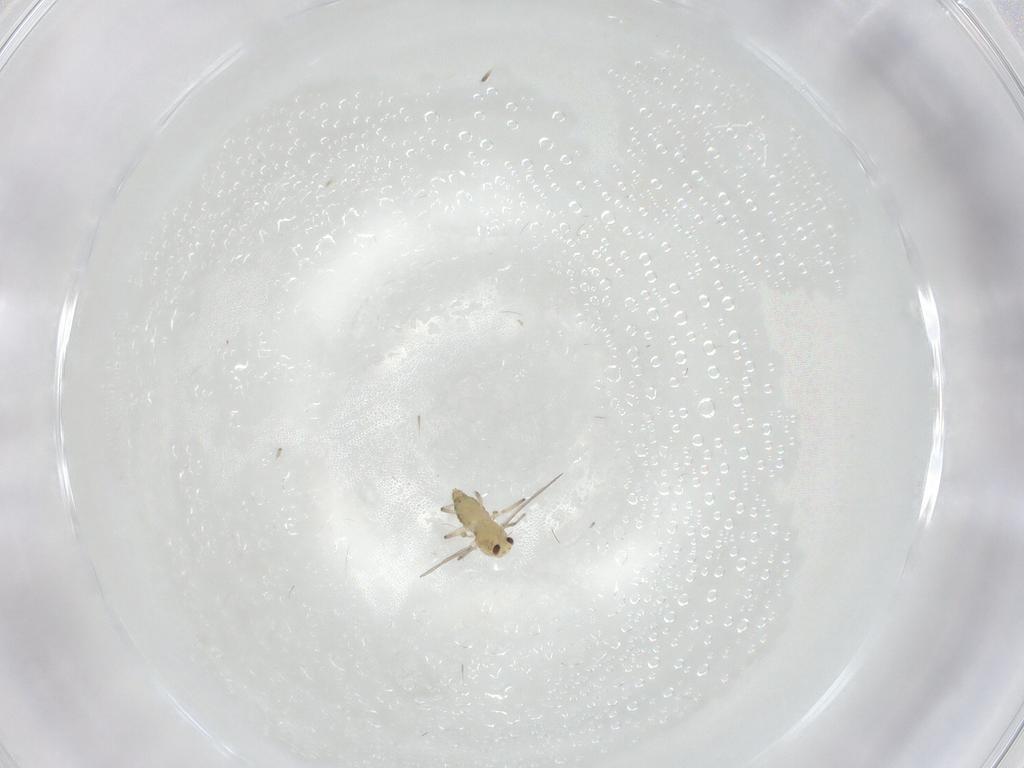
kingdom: Animalia
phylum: Arthropoda
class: Insecta
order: Diptera
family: Chironomidae
